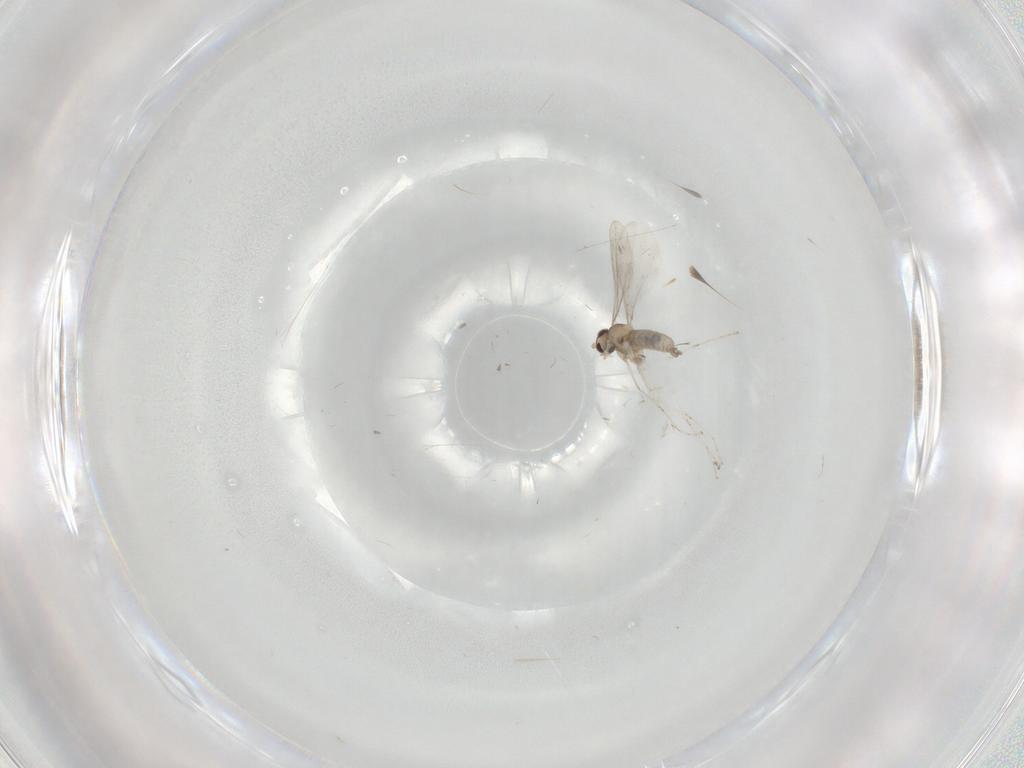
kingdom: Animalia
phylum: Arthropoda
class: Insecta
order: Diptera
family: Cecidomyiidae
